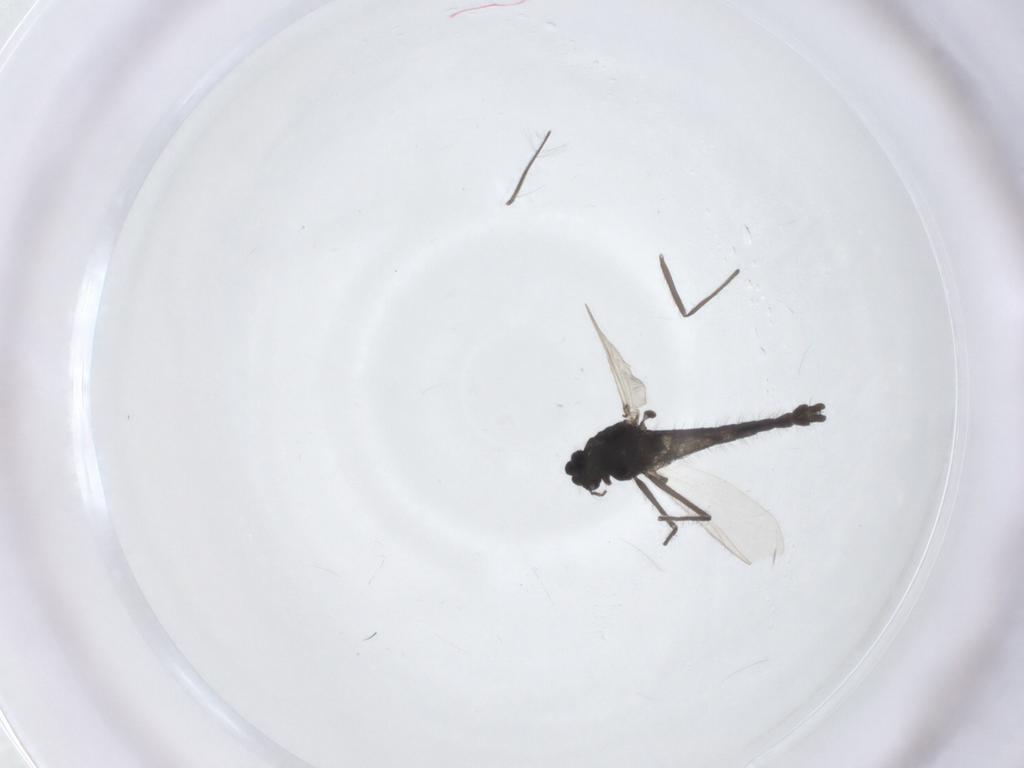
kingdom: Animalia
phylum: Arthropoda
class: Insecta
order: Diptera
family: Chironomidae
